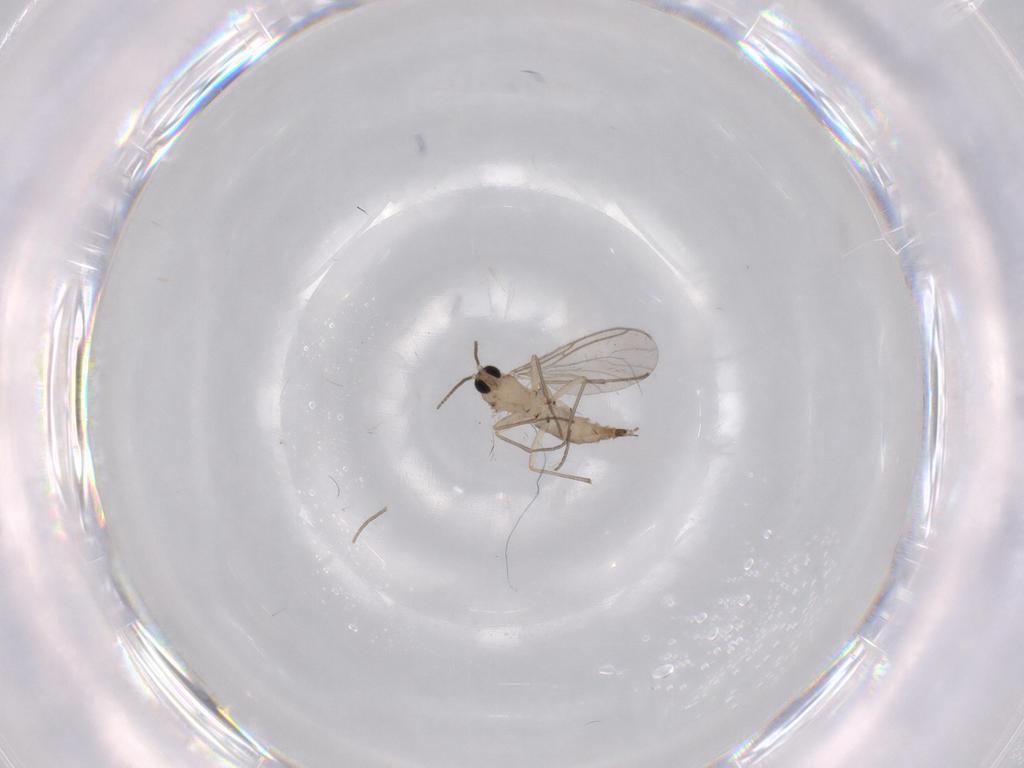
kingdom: Animalia
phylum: Arthropoda
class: Insecta
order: Diptera
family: Sciaridae
